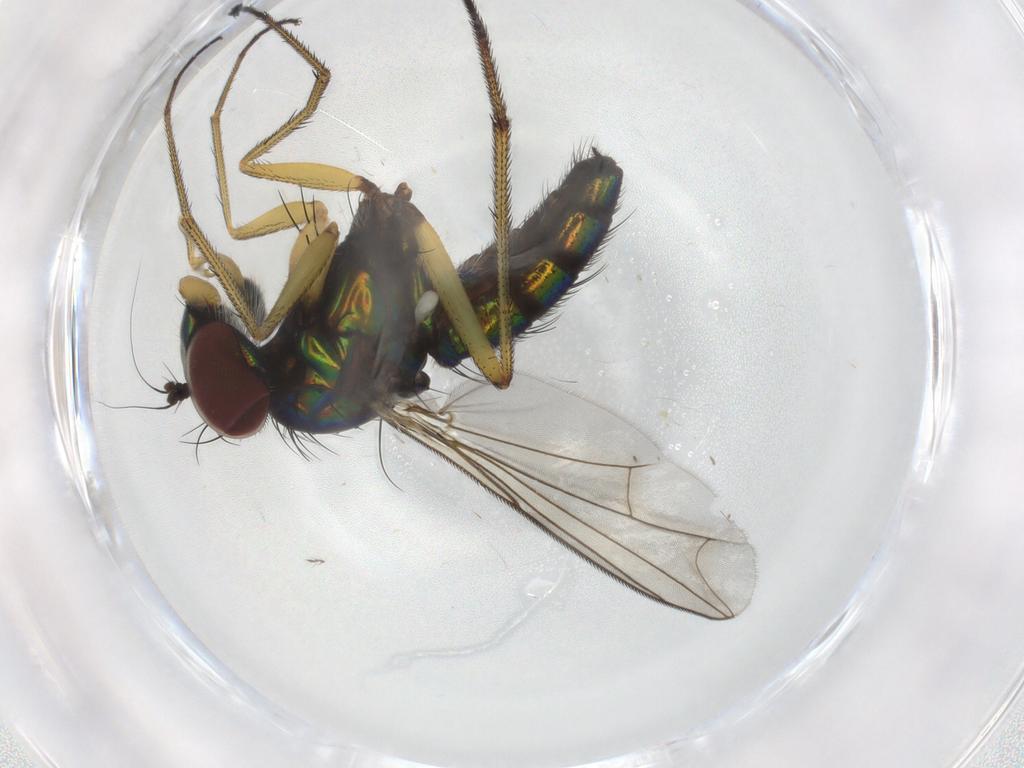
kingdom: Animalia
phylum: Arthropoda
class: Insecta
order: Diptera
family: Dolichopodidae
